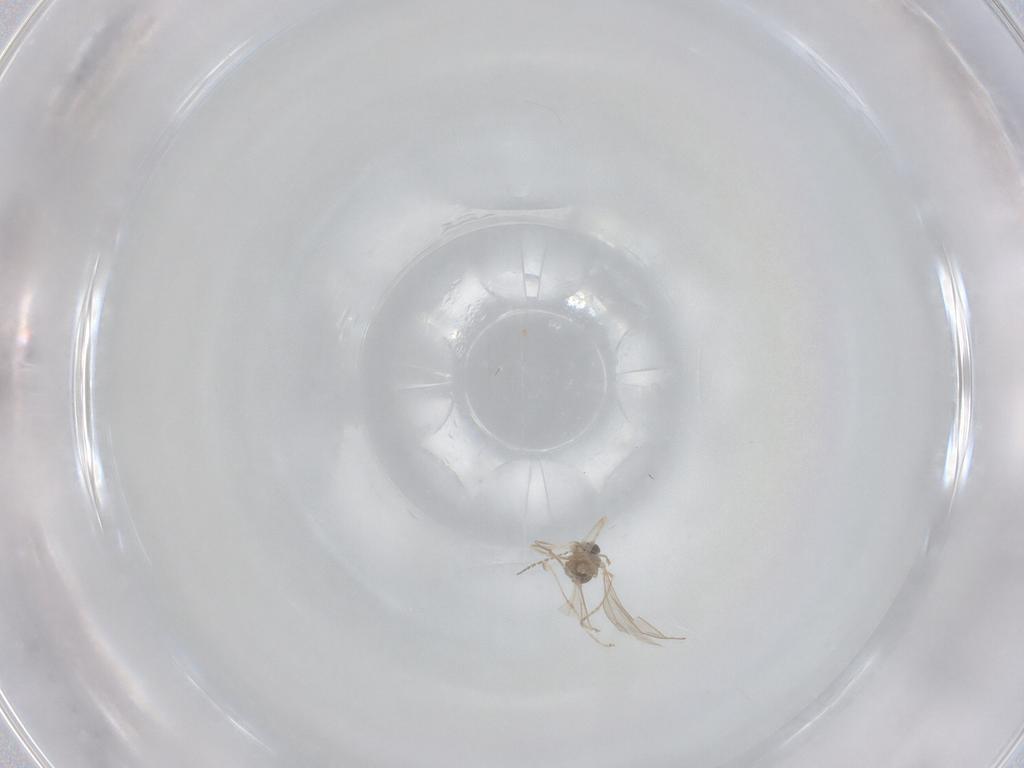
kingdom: Animalia
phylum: Arthropoda
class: Insecta
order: Diptera
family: Cecidomyiidae
